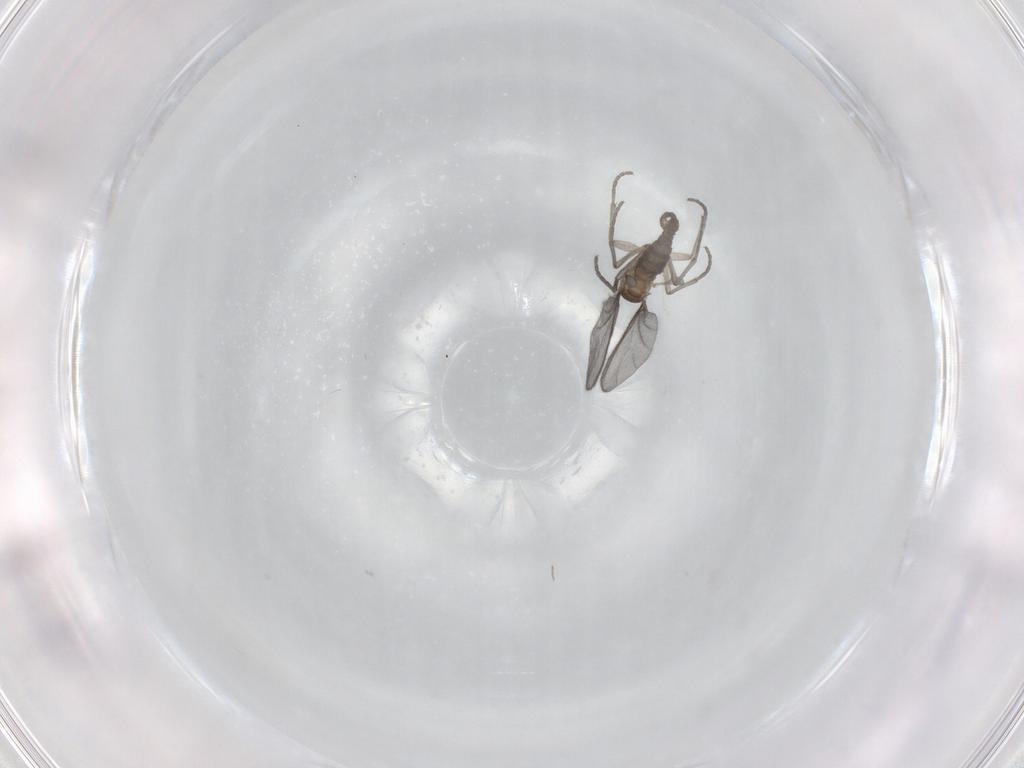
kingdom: Animalia
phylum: Arthropoda
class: Insecta
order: Diptera
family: Sciaridae
